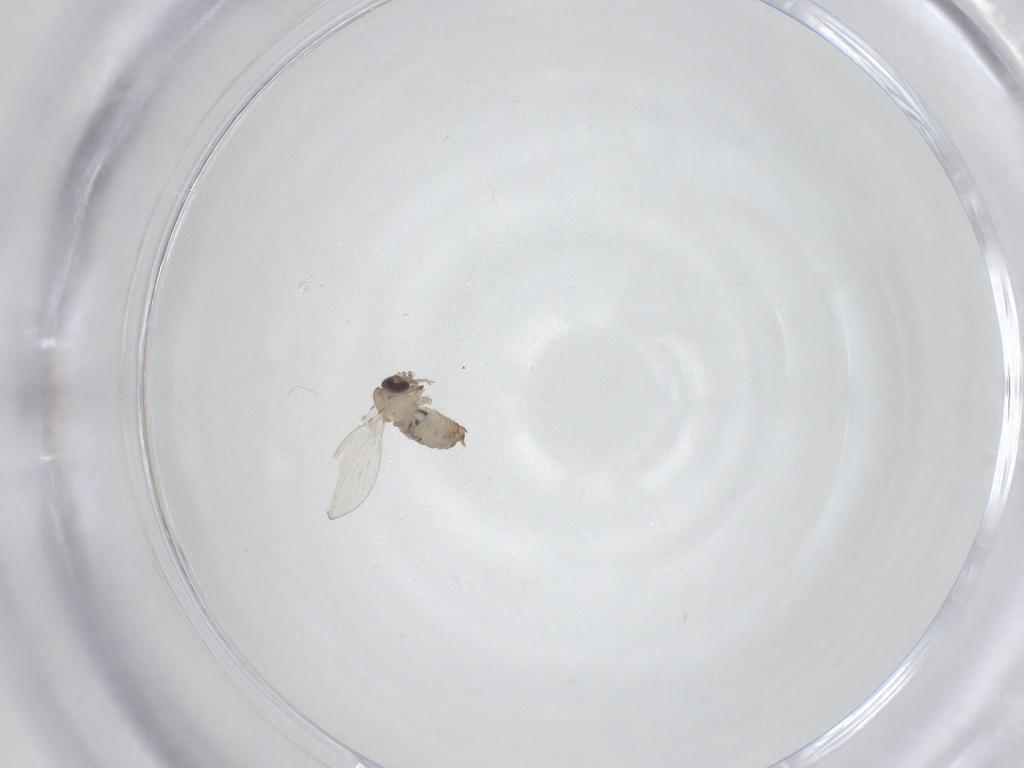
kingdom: Animalia
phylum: Arthropoda
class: Insecta
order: Diptera
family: Psychodidae
